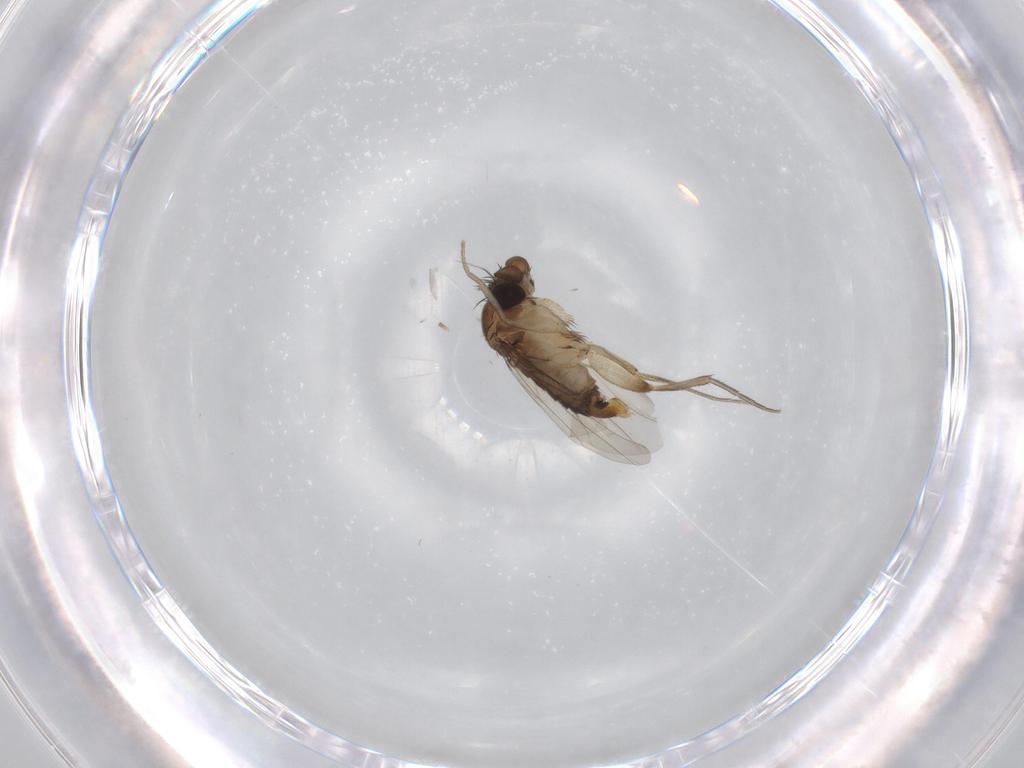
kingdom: Animalia
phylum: Arthropoda
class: Insecta
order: Diptera
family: Phoridae
